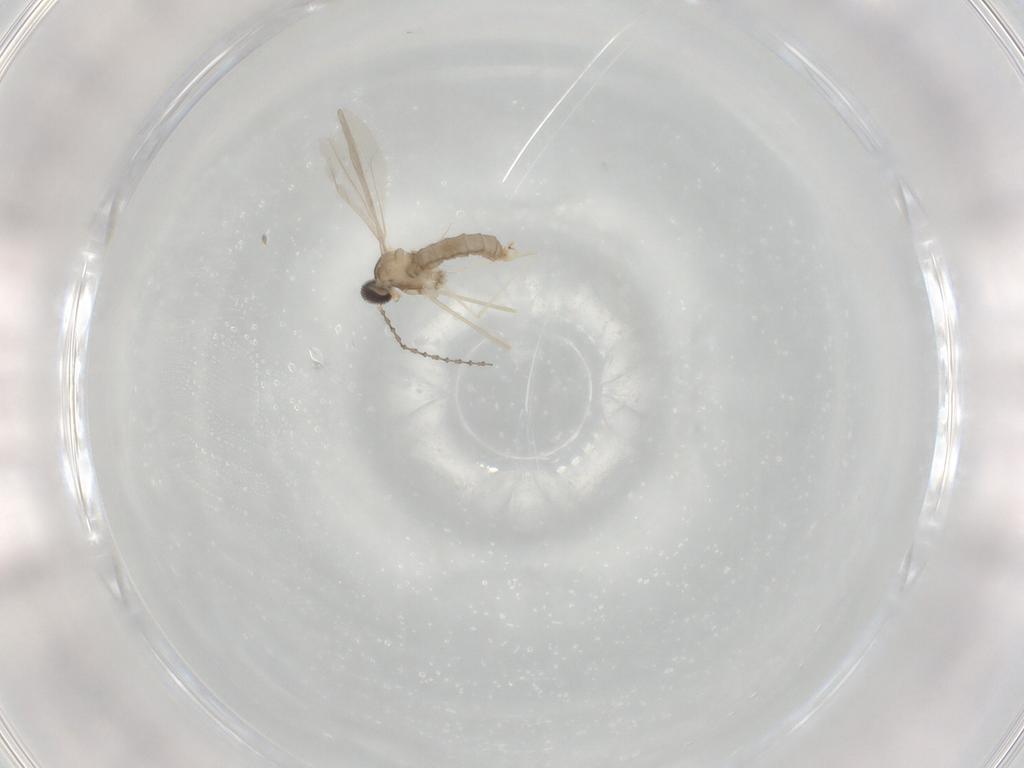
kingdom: Animalia
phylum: Arthropoda
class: Insecta
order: Diptera
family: Cecidomyiidae
